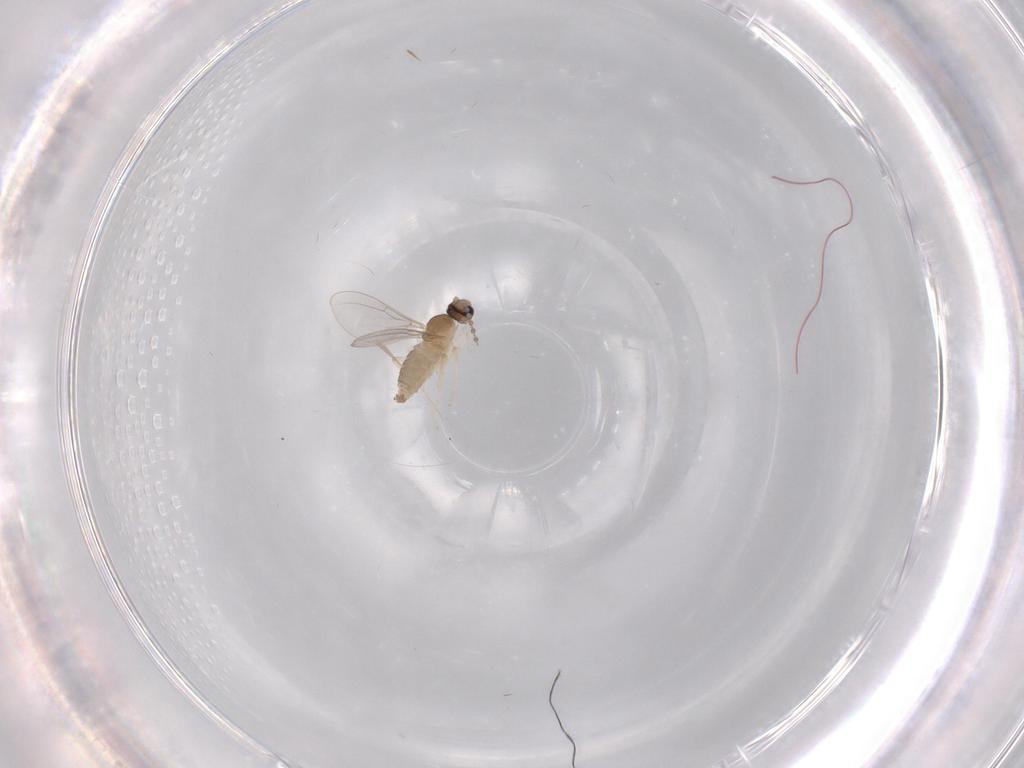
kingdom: Animalia
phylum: Arthropoda
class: Insecta
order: Diptera
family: Cecidomyiidae
